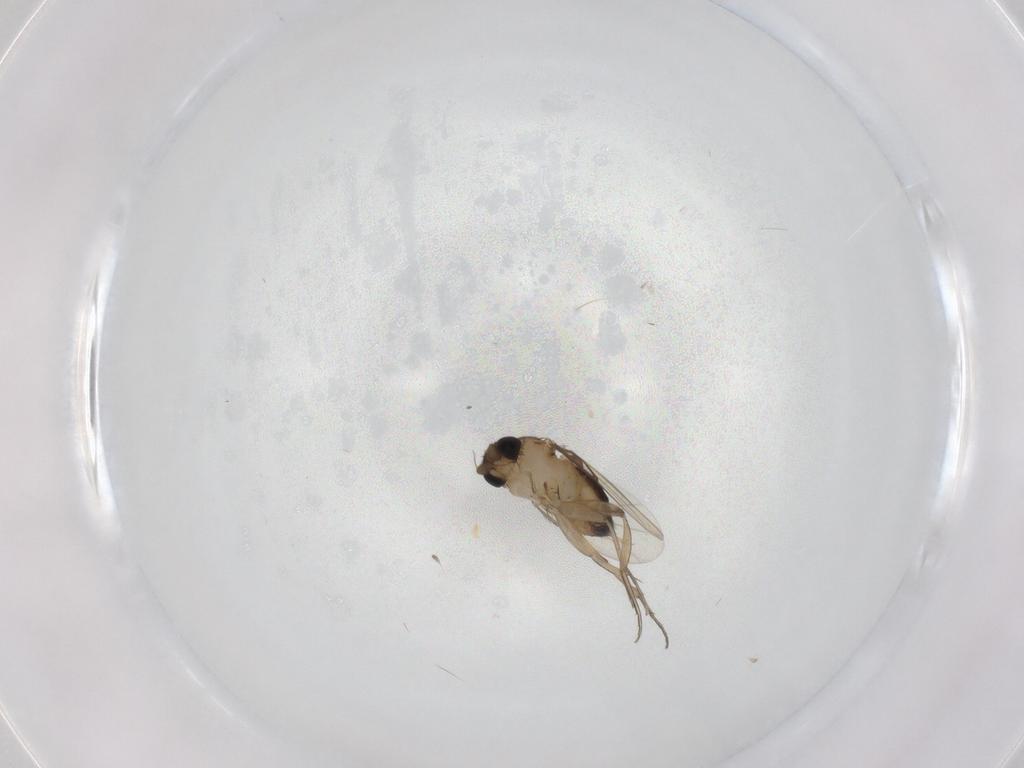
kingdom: Animalia
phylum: Arthropoda
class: Insecta
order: Diptera
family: Phoridae
